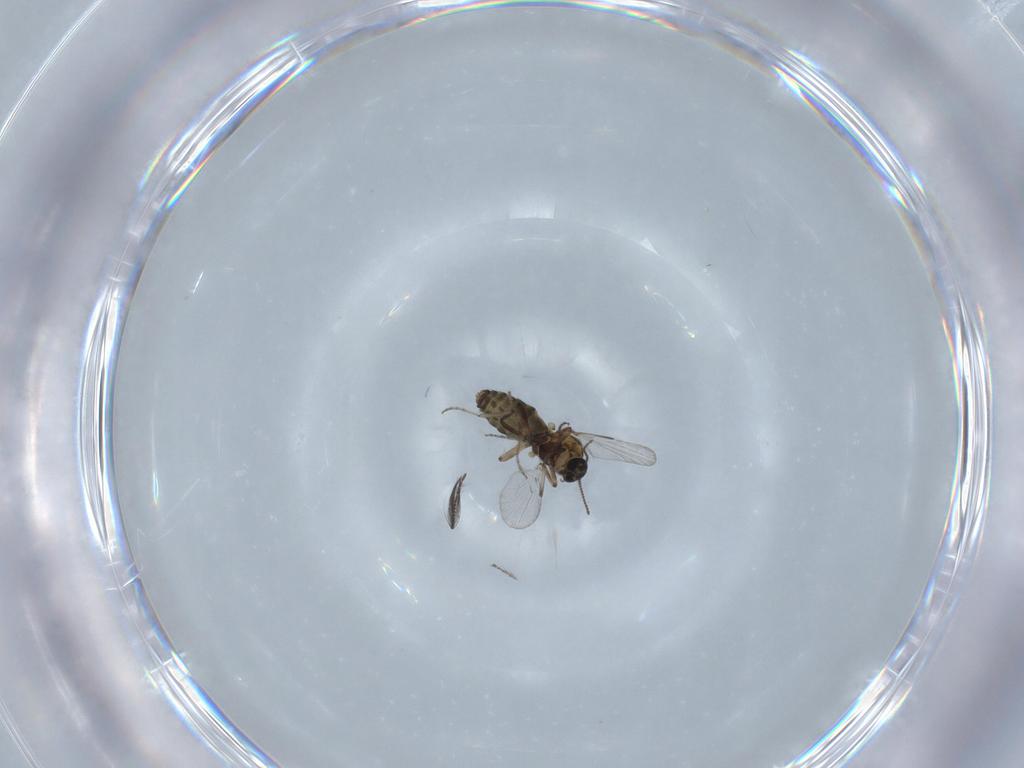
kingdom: Animalia
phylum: Arthropoda
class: Insecta
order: Diptera
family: Ceratopogonidae
